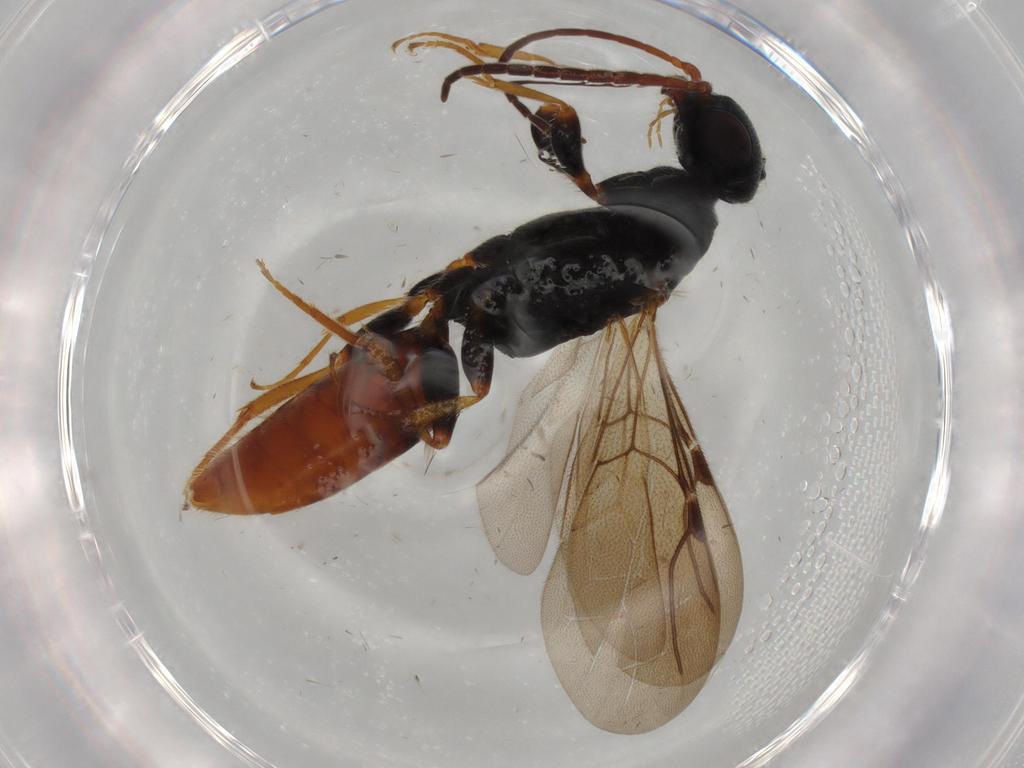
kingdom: Animalia
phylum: Arthropoda
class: Insecta
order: Hymenoptera
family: Bethylidae
